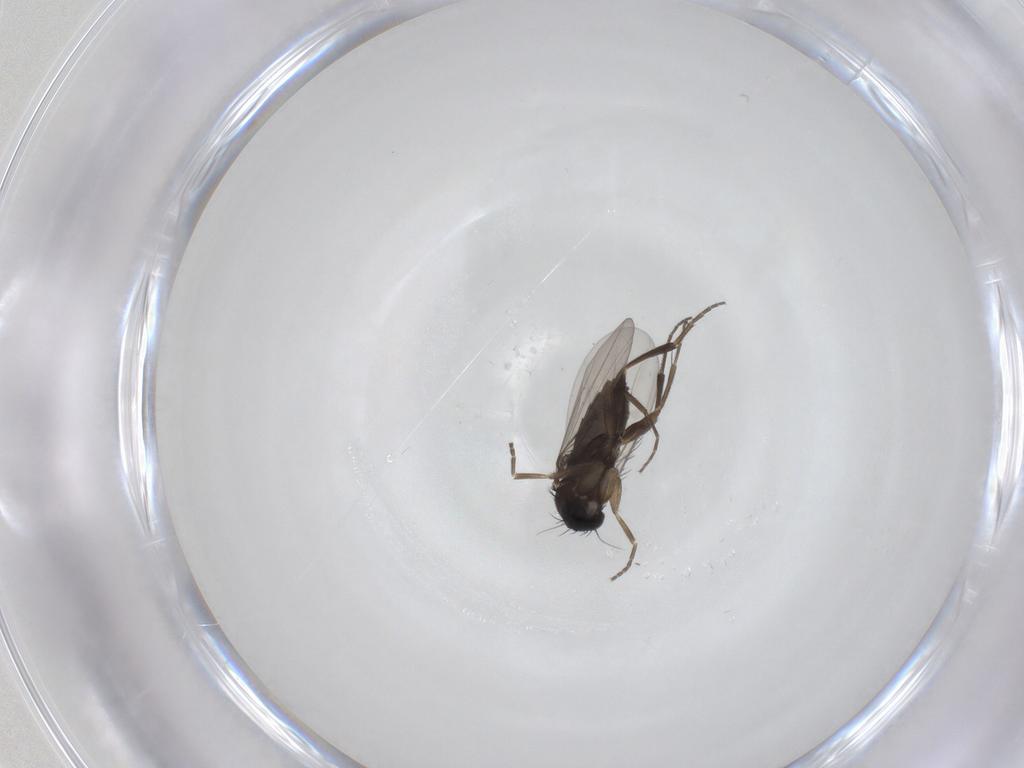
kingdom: Animalia
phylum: Arthropoda
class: Insecta
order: Diptera
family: Phoridae
